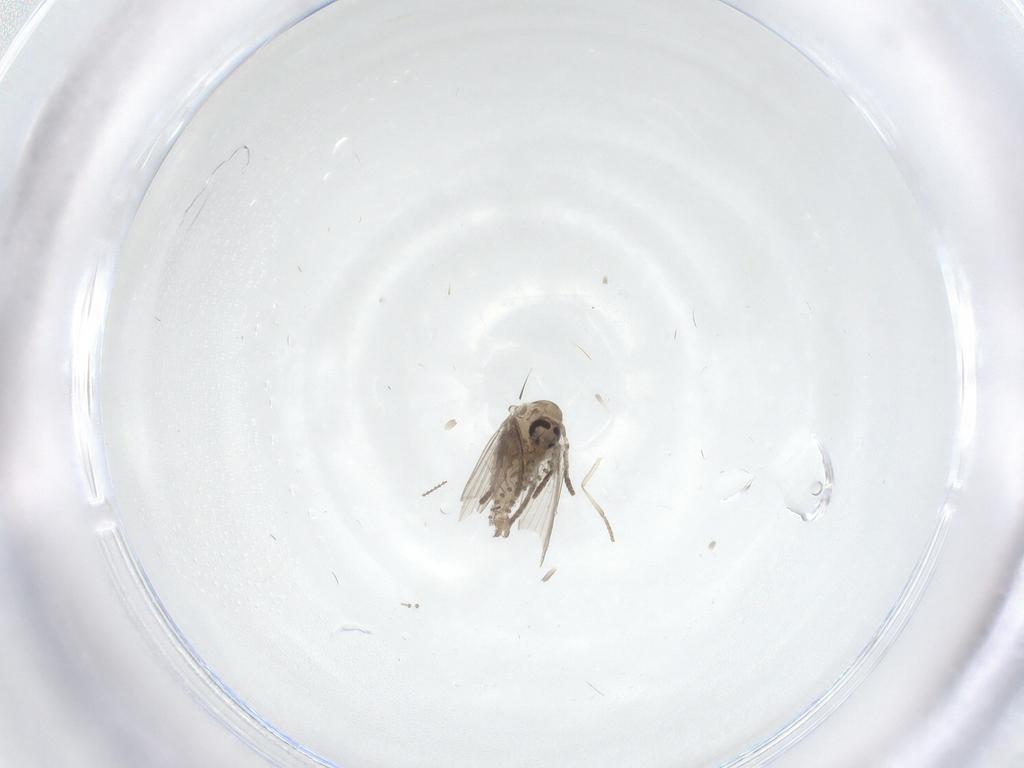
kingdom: Animalia
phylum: Arthropoda
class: Insecta
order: Diptera
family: Psychodidae
